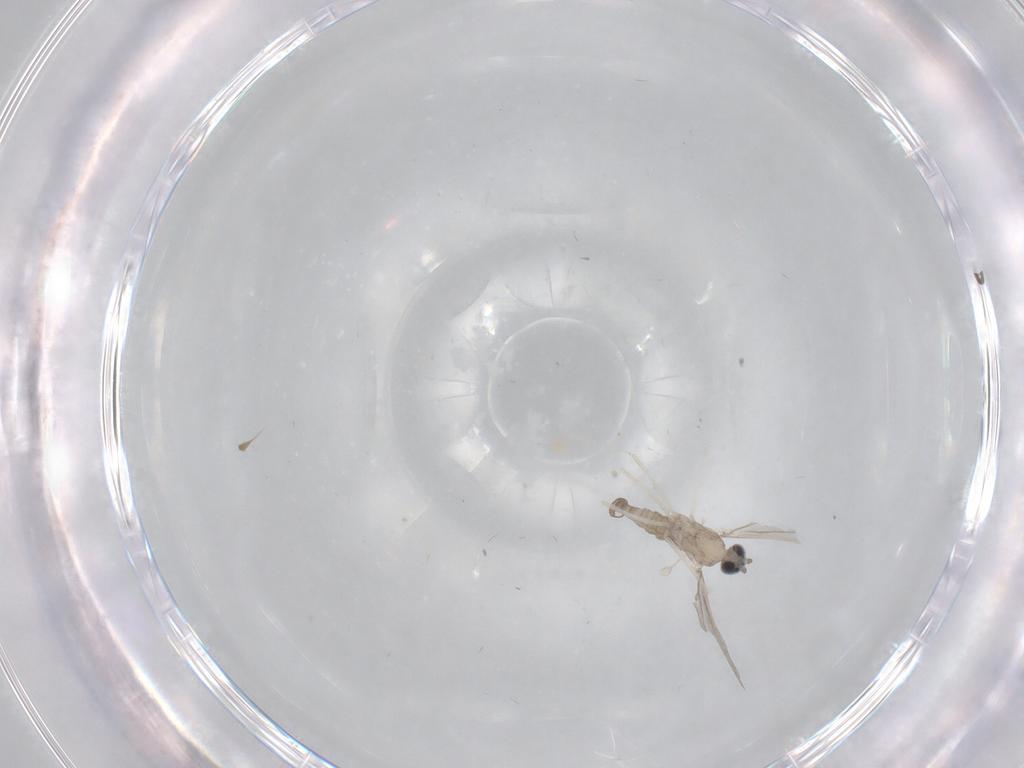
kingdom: Animalia
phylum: Arthropoda
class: Insecta
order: Diptera
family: Cecidomyiidae
